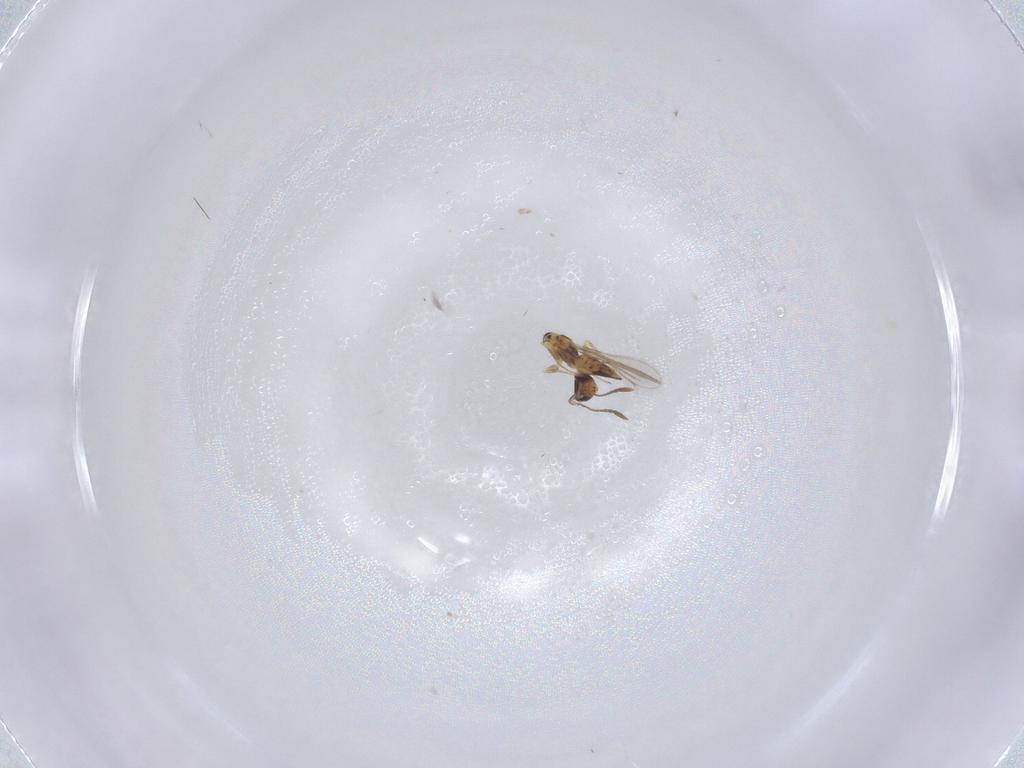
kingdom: Animalia
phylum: Arthropoda
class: Insecta
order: Hymenoptera
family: Mymaridae
